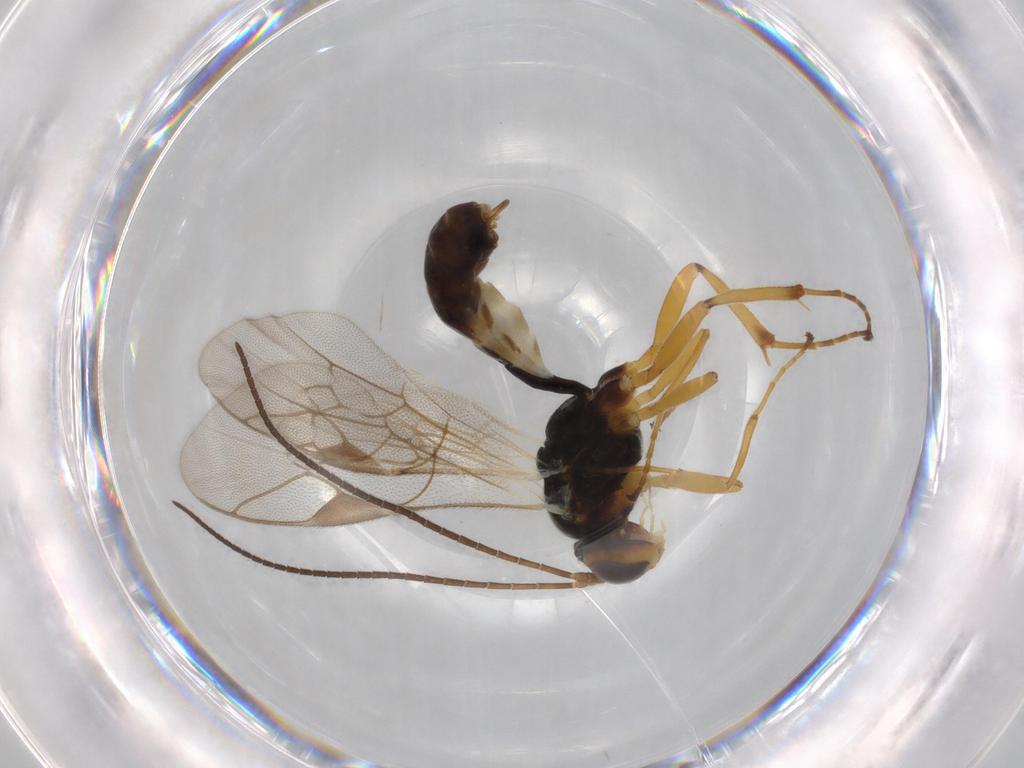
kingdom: Animalia
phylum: Arthropoda
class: Insecta
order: Hymenoptera
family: Ichneumonidae
